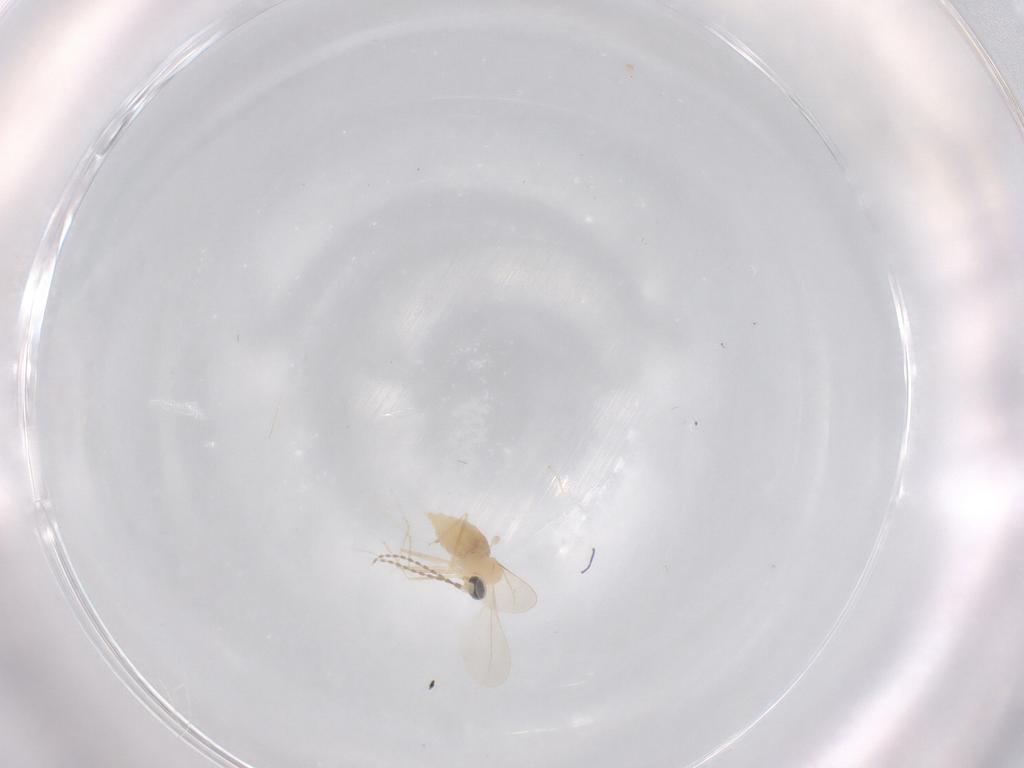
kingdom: Animalia
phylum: Arthropoda
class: Insecta
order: Diptera
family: Cecidomyiidae
